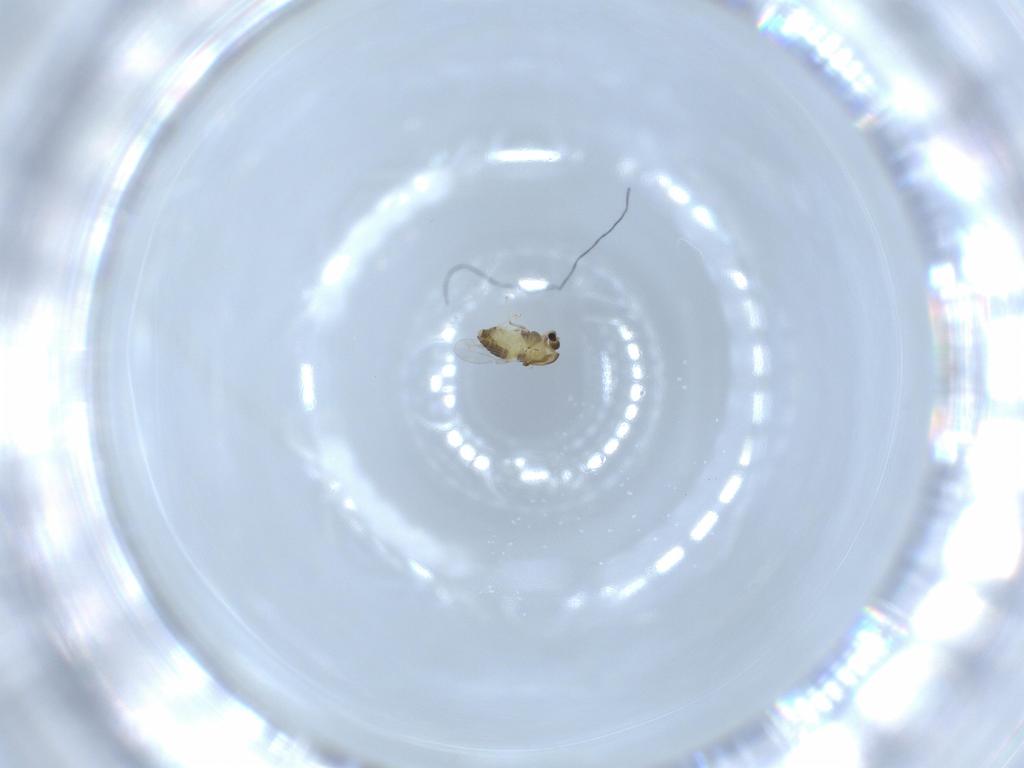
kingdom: Animalia
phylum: Arthropoda
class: Insecta
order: Diptera
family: Chironomidae
